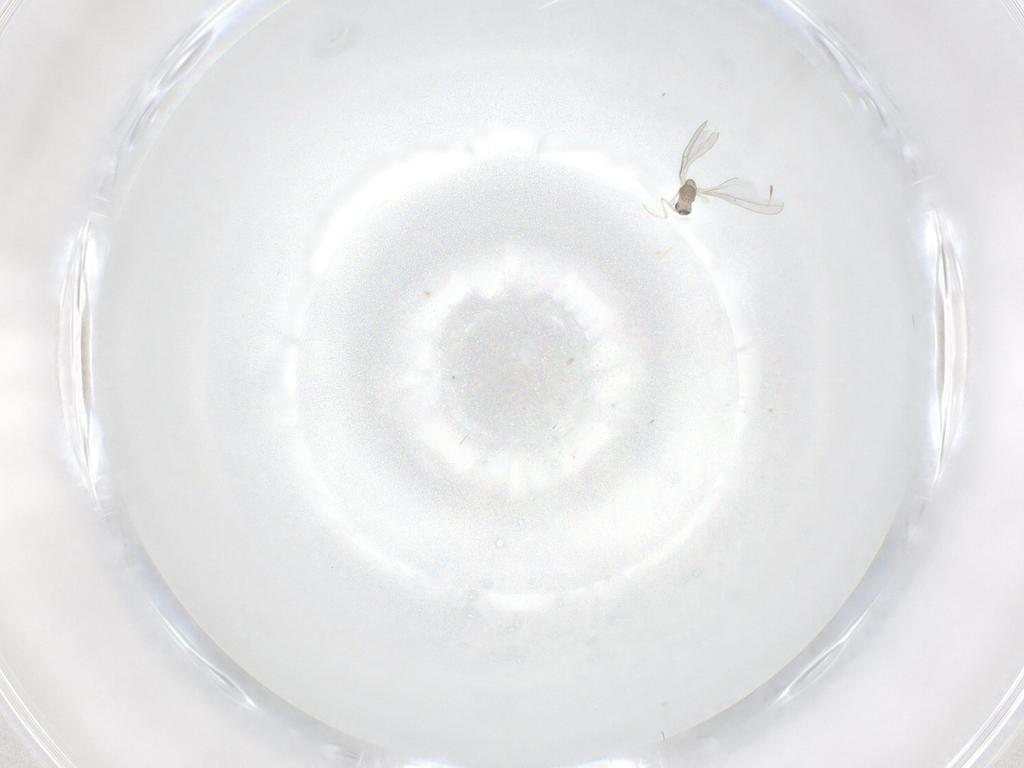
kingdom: Animalia
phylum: Arthropoda
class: Insecta
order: Diptera
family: Cecidomyiidae
